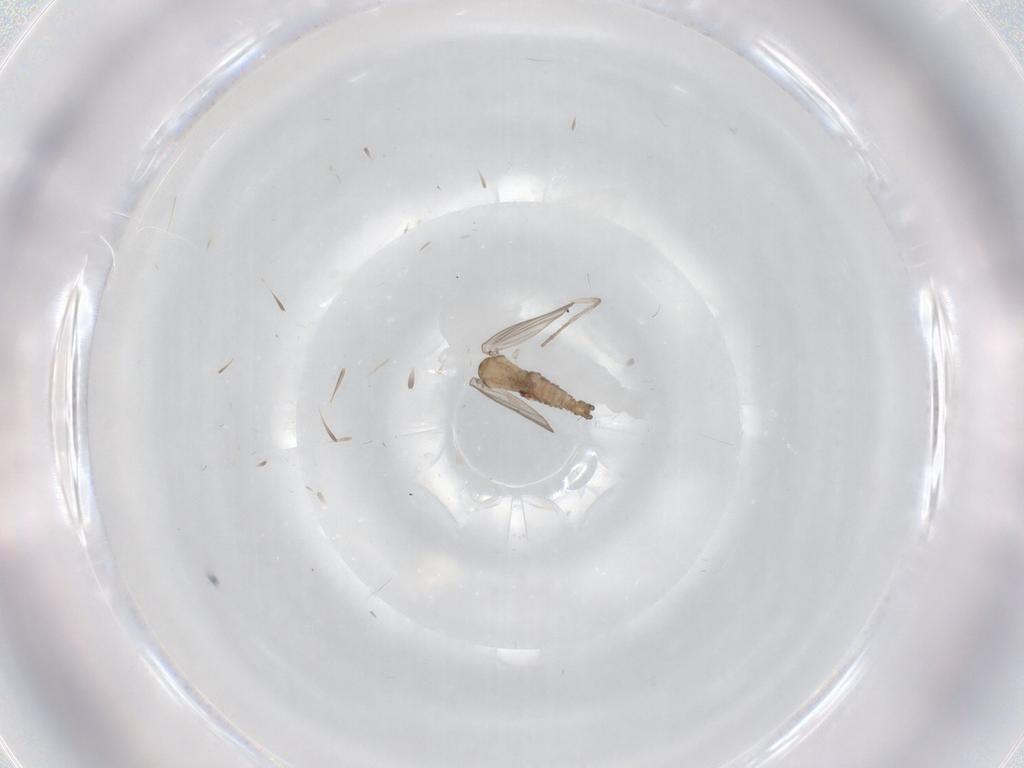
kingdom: Animalia
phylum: Arthropoda
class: Insecta
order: Diptera
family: Psychodidae
